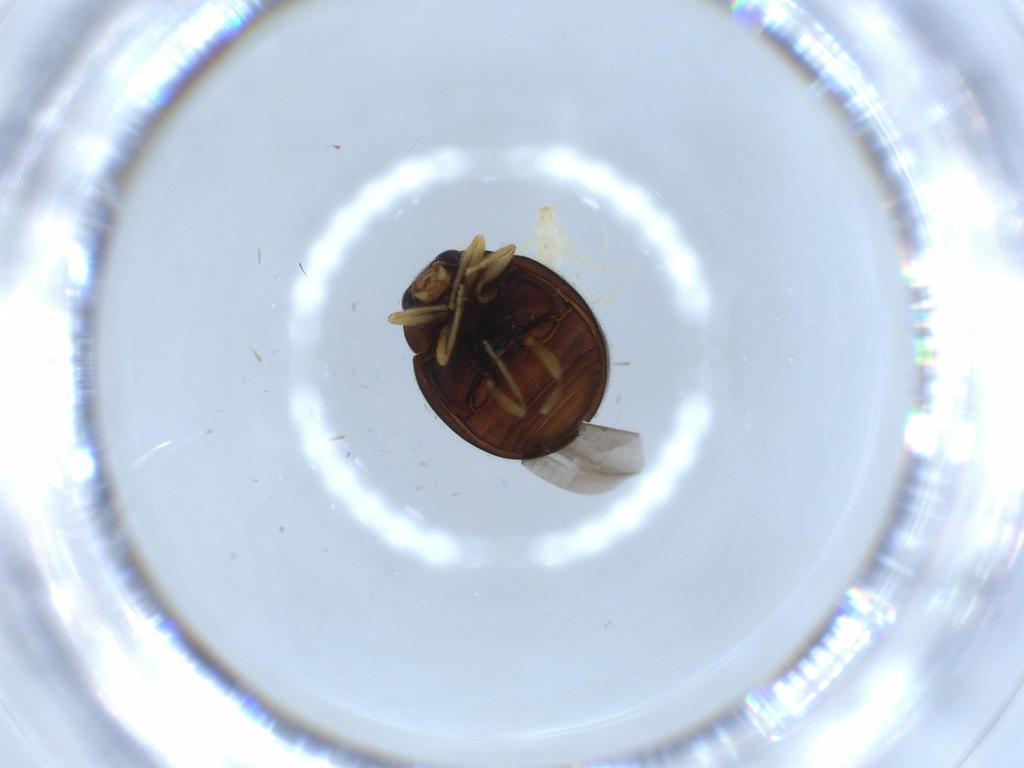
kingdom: Animalia
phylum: Arthropoda
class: Insecta
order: Coleoptera
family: Coccinellidae
